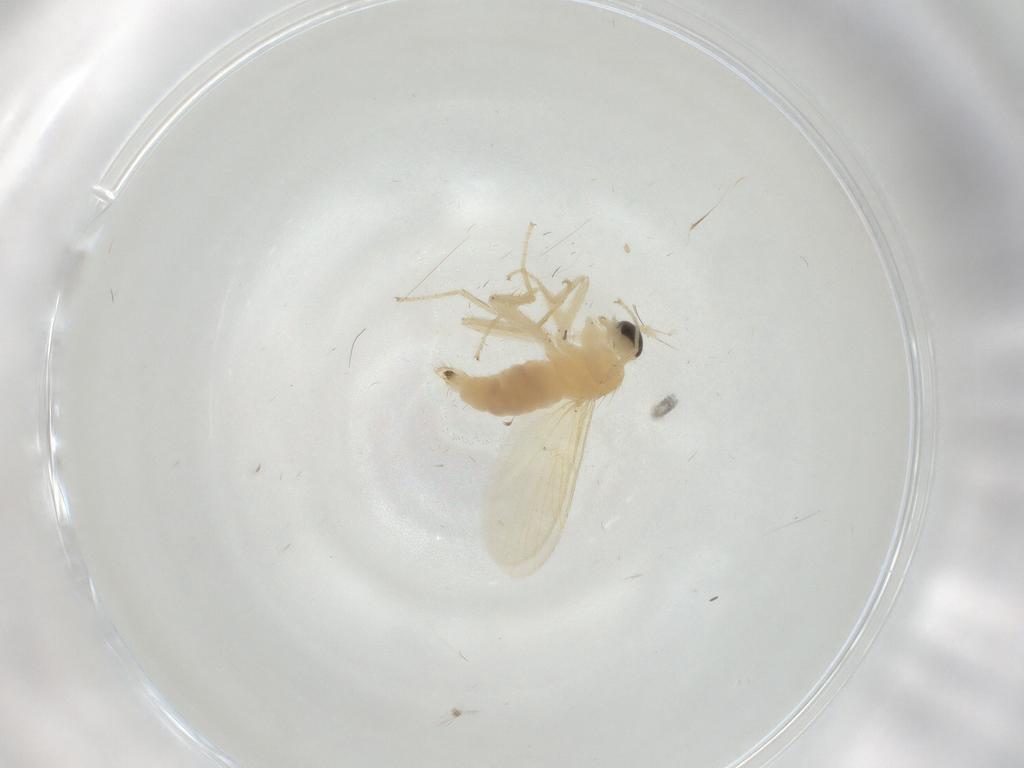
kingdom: Animalia
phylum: Arthropoda
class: Insecta
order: Diptera
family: Hybotidae
